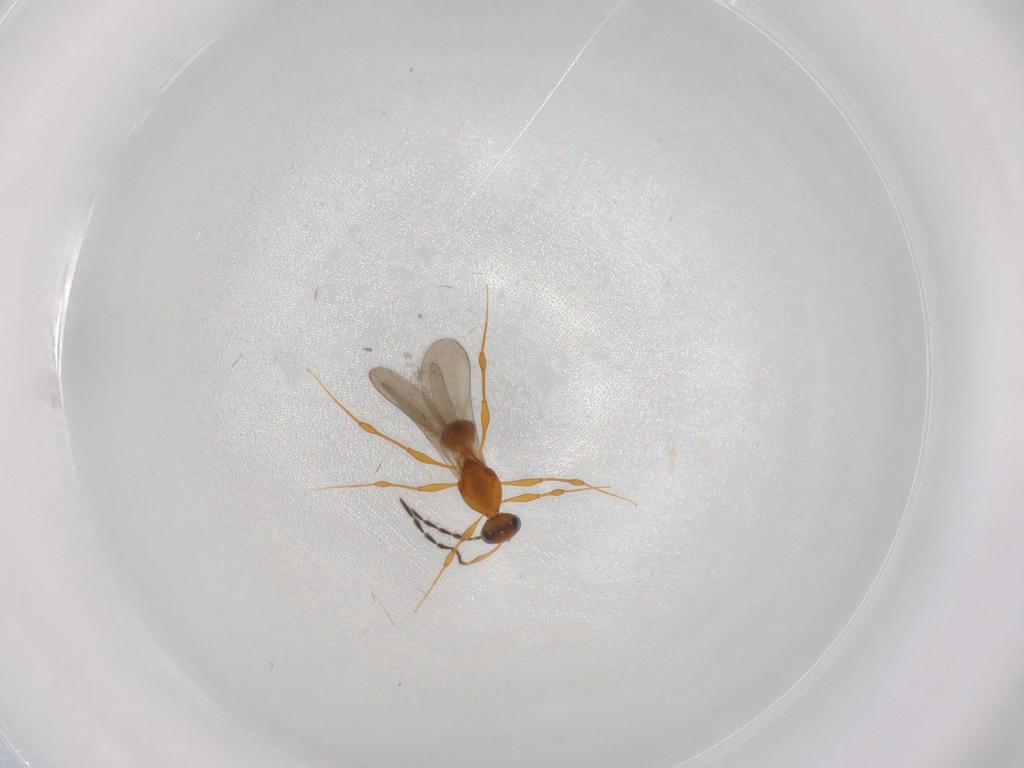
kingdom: Animalia
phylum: Arthropoda
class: Insecta
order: Hymenoptera
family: Platygastridae
